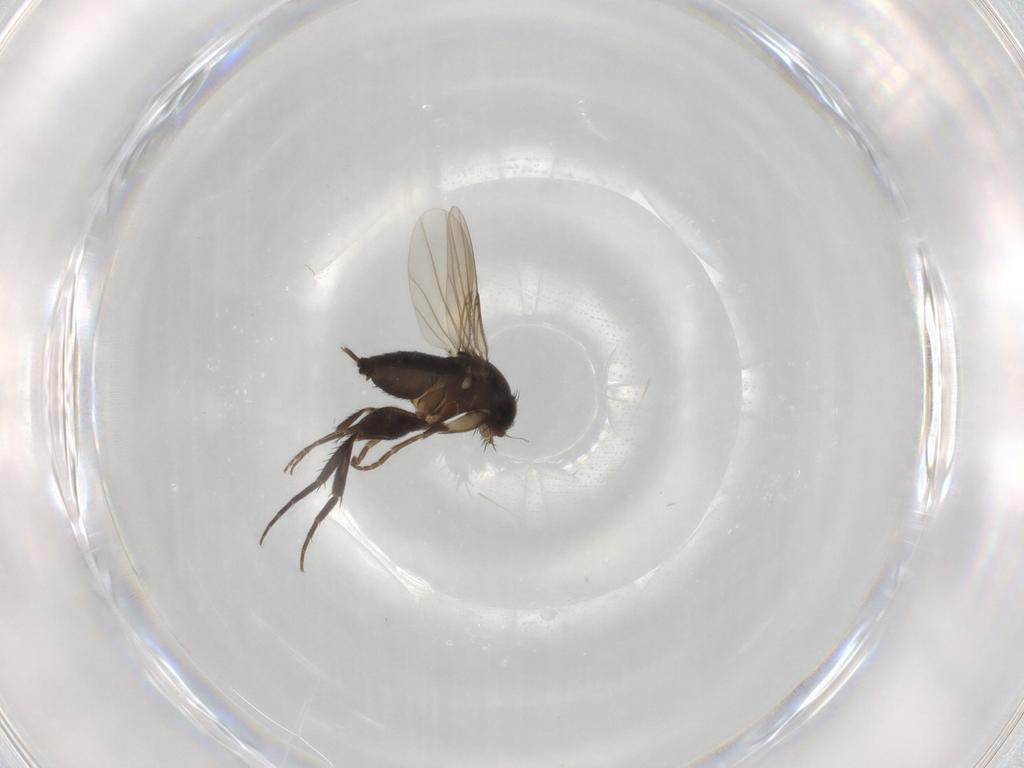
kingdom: Animalia
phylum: Arthropoda
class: Insecta
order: Diptera
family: Phoridae
